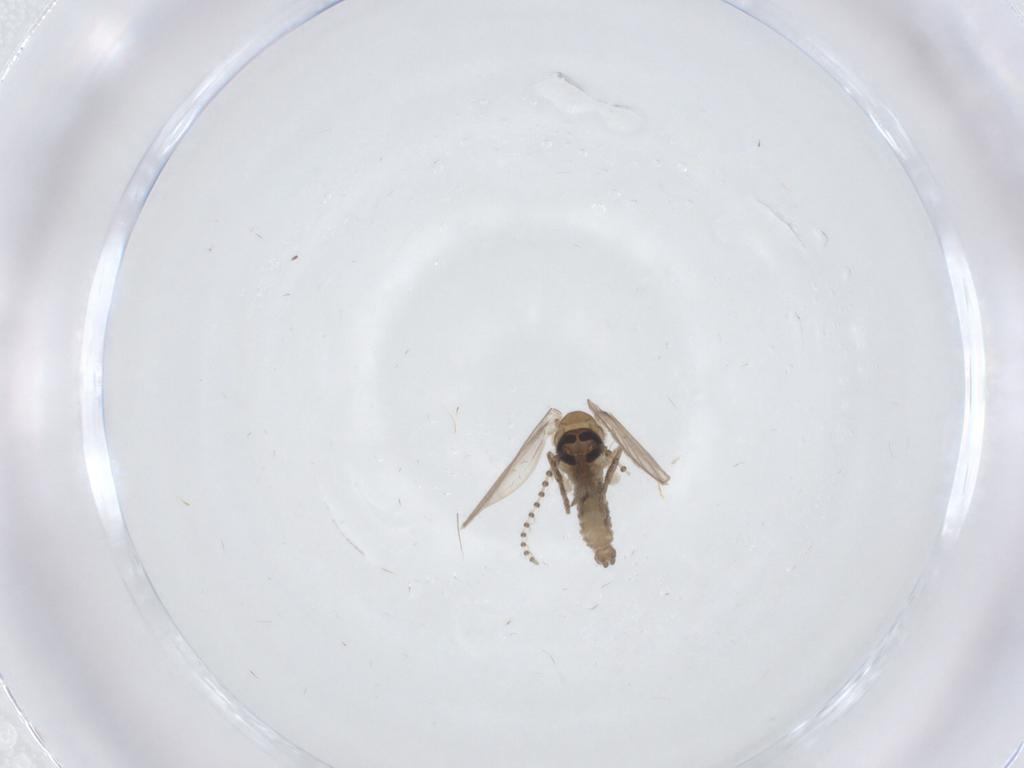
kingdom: Animalia
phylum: Arthropoda
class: Insecta
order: Diptera
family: Psychodidae
